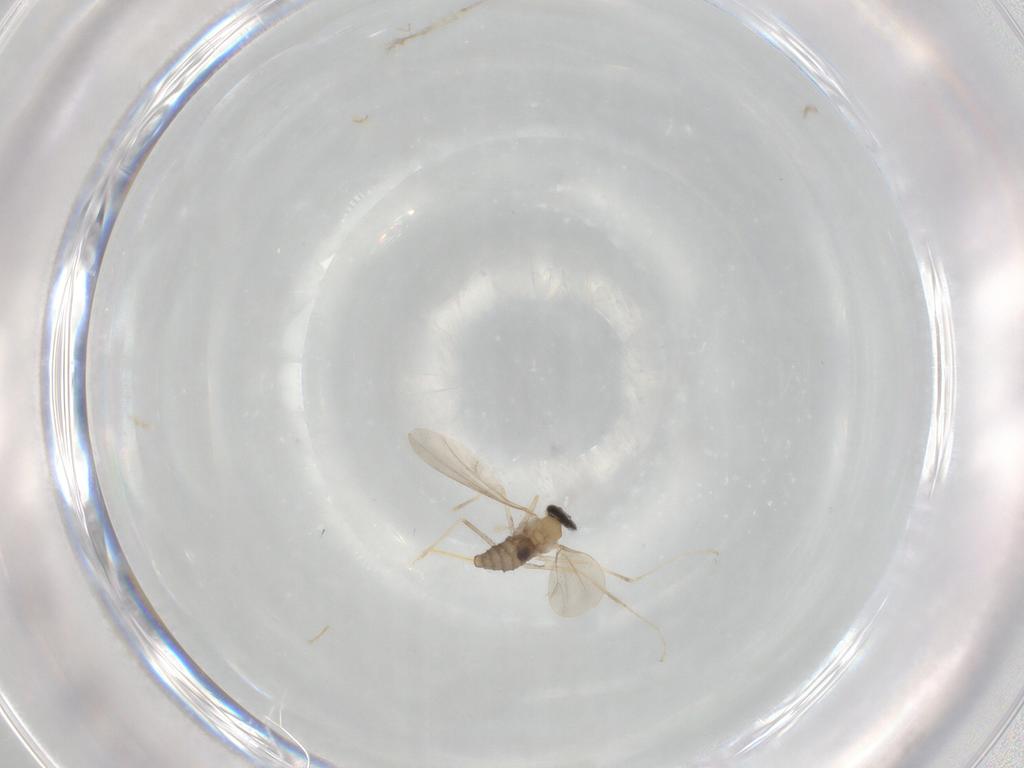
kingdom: Animalia
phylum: Arthropoda
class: Insecta
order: Diptera
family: Cecidomyiidae
